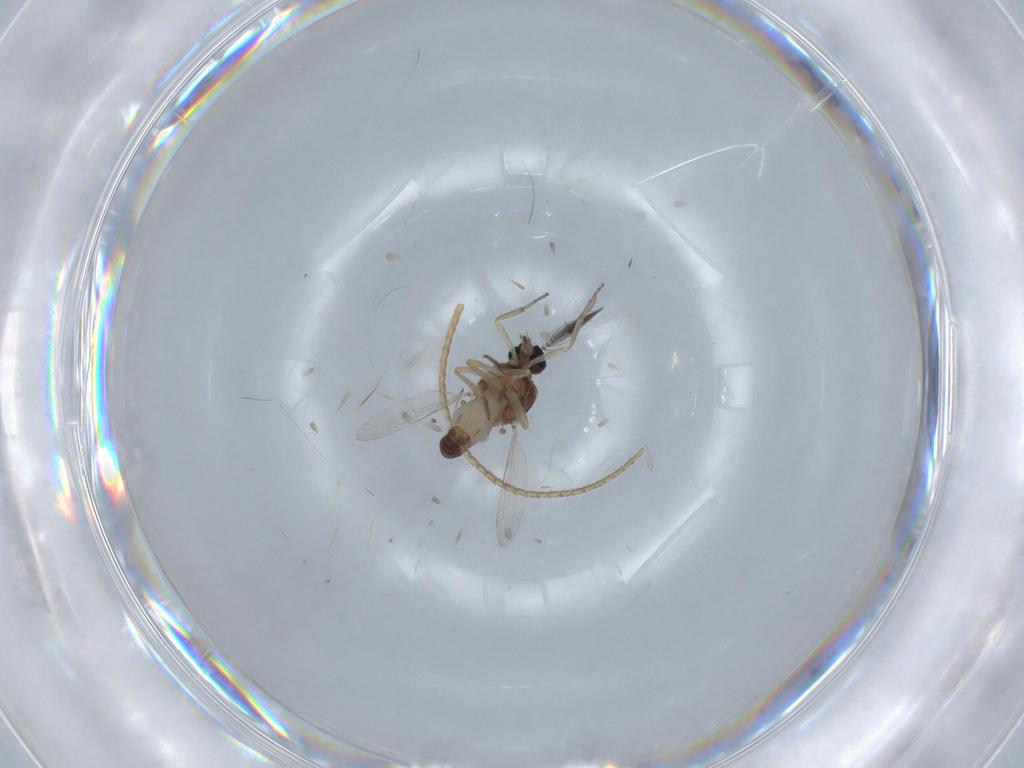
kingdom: Animalia
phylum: Arthropoda
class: Insecta
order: Diptera
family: Ceratopogonidae
